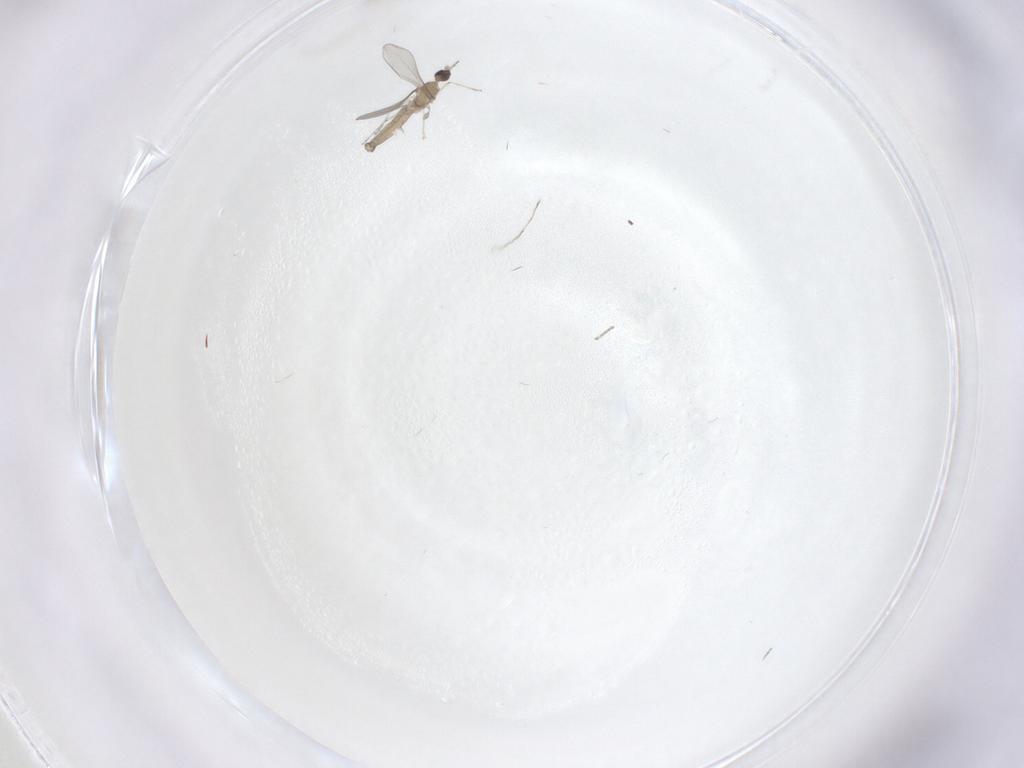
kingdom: Animalia
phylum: Arthropoda
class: Insecta
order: Diptera
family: Cecidomyiidae
